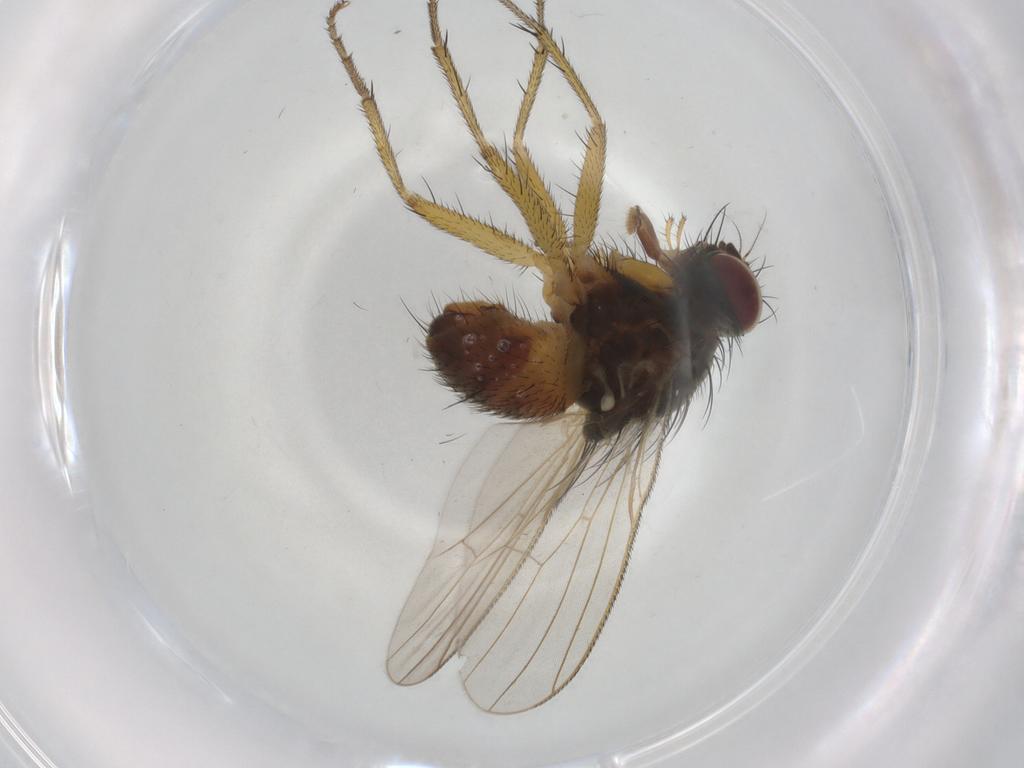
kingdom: Animalia
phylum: Arthropoda
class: Insecta
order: Diptera
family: Muscidae
